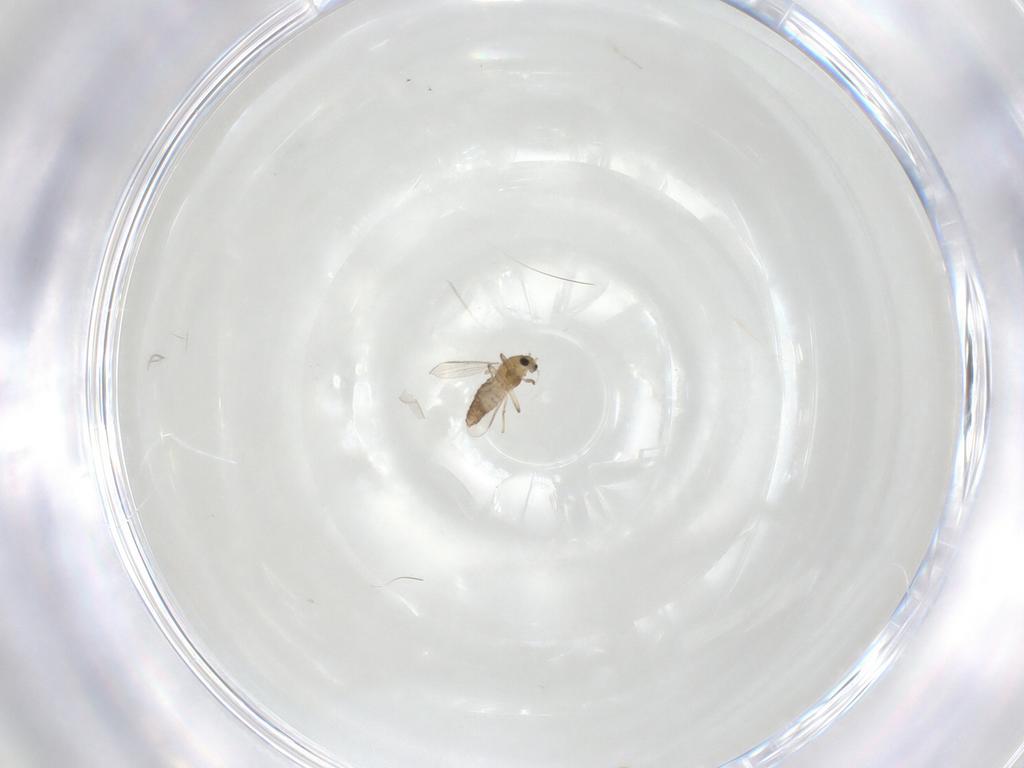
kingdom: Animalia
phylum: Arthropoda
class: Insecta
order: Diptera
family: Chironomidae
